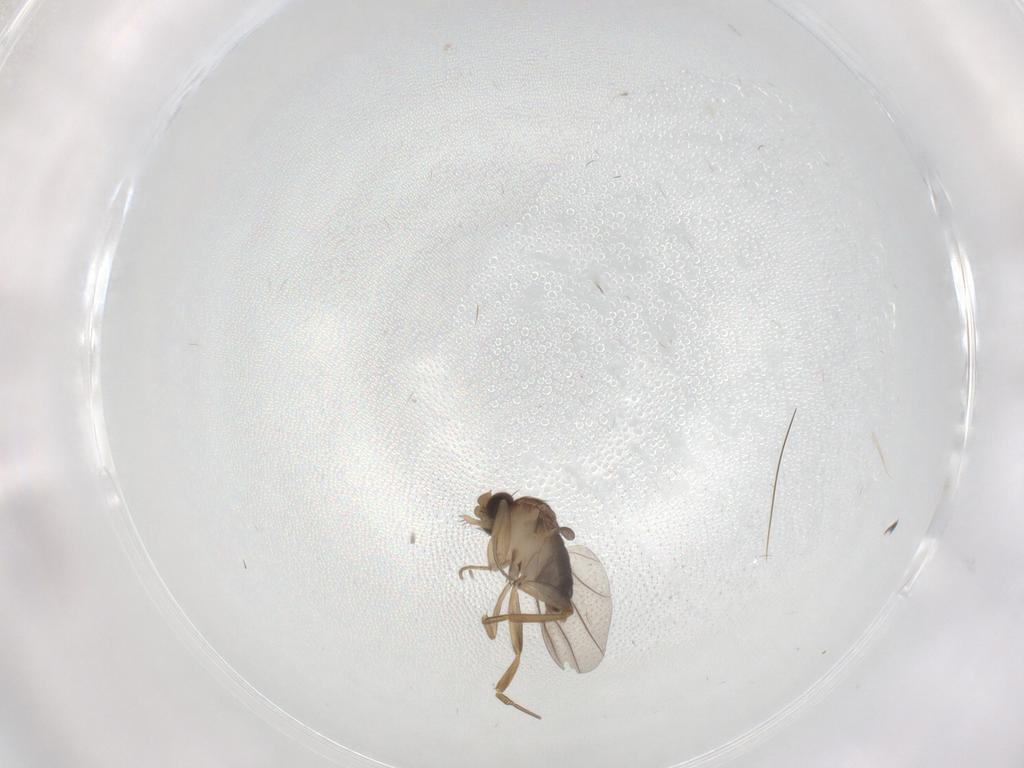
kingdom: Animalia
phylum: Arthropoda
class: Insecta
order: Diptera
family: Phoridae
